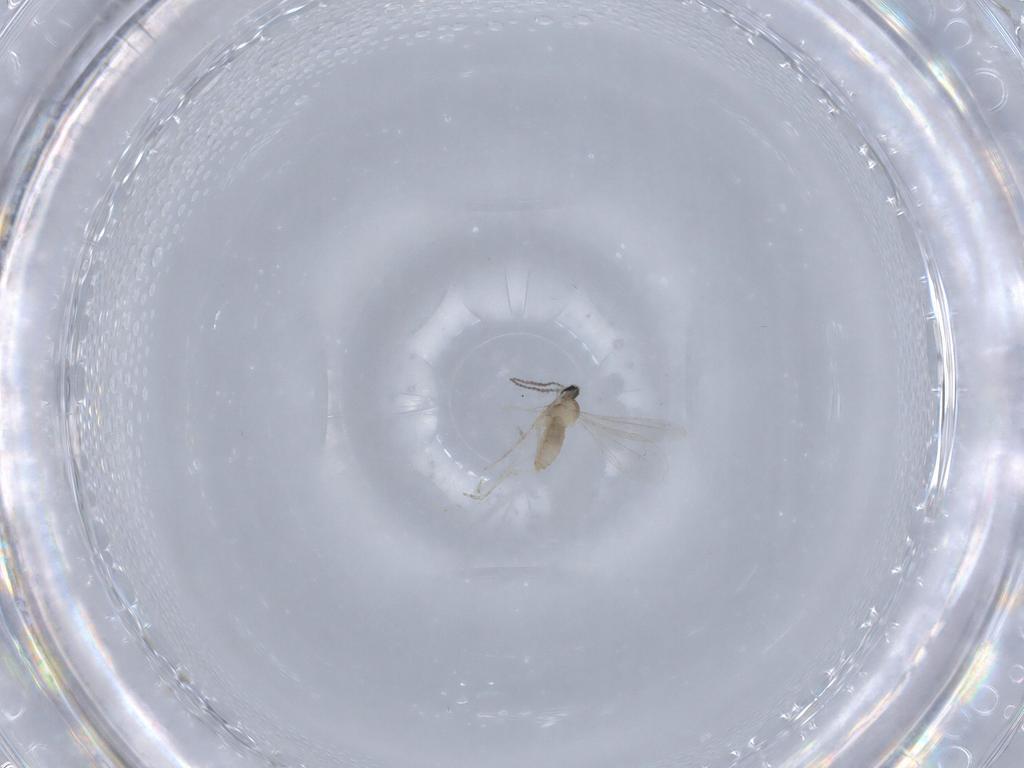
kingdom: Animalia
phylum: Arthropoda
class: Insecta
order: Diptera
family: Cecidomyiidae
